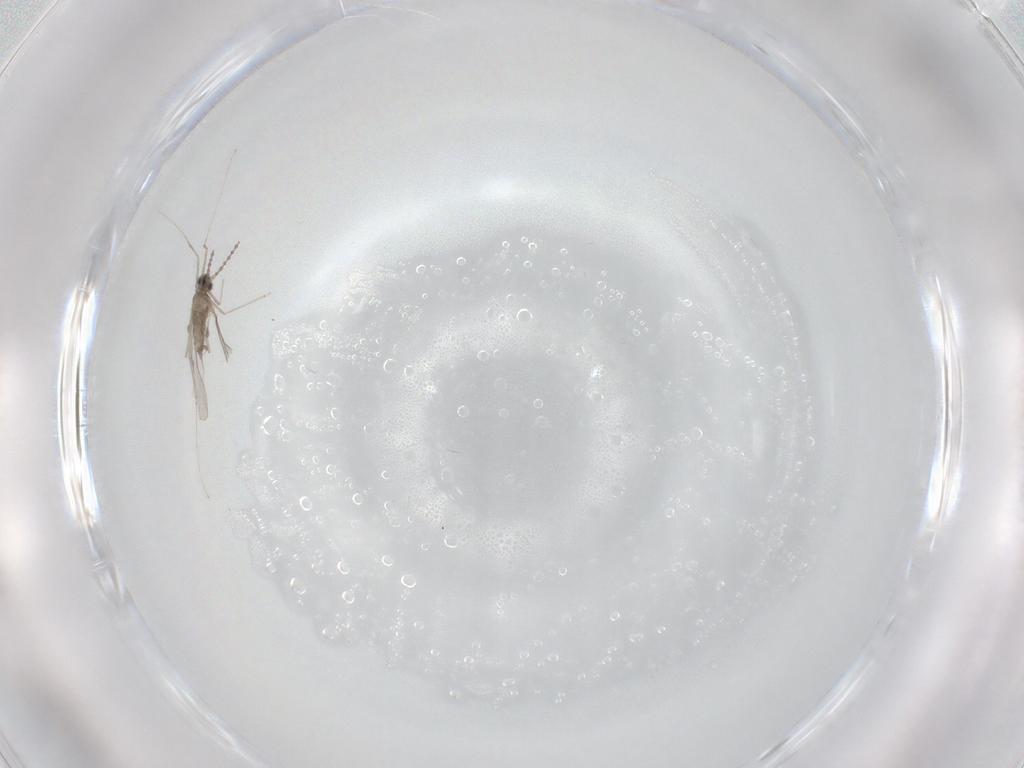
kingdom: Animalia
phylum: Arthropoda
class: Insecta
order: Diptera
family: Cecidomyiidae
